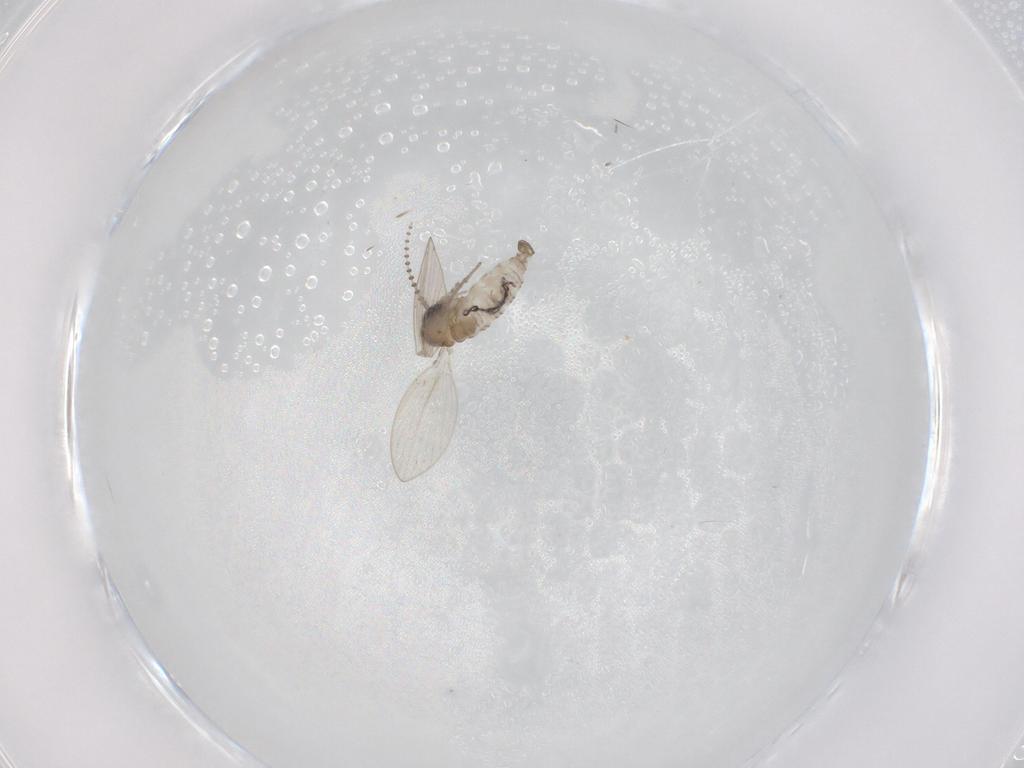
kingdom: Animalia
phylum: Arthropoda
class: Insecta
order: Diptera
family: Psychodidae
